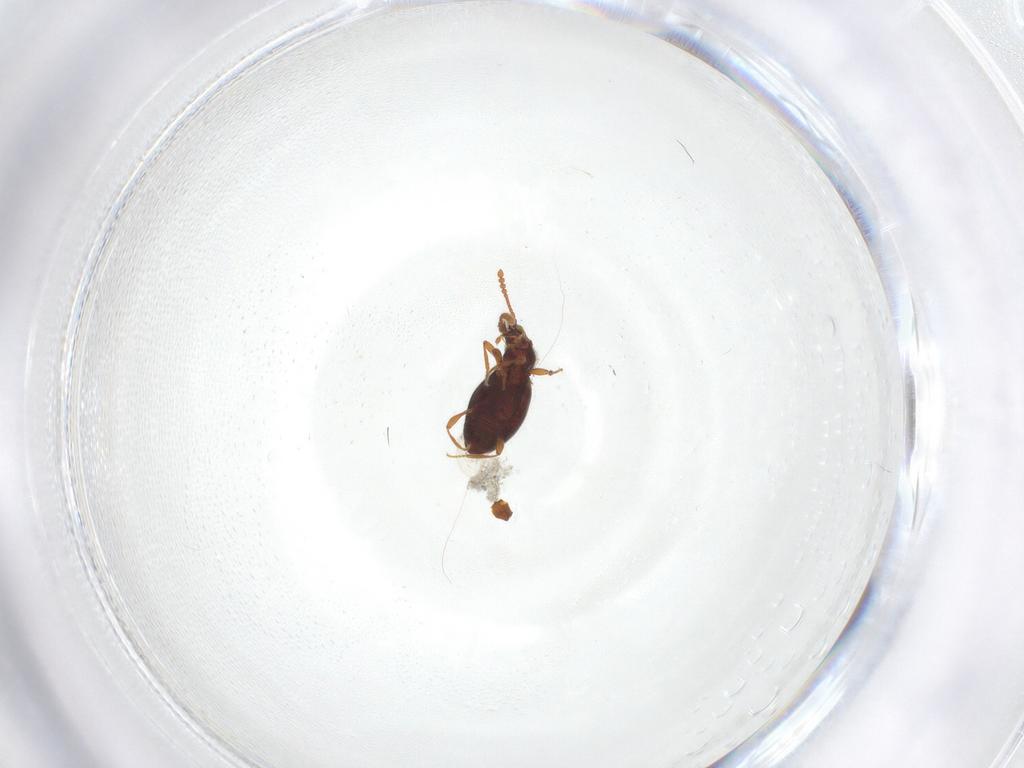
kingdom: Animalia
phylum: Arthropoda
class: Insecta
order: Coleoptera
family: Staphylinidae
